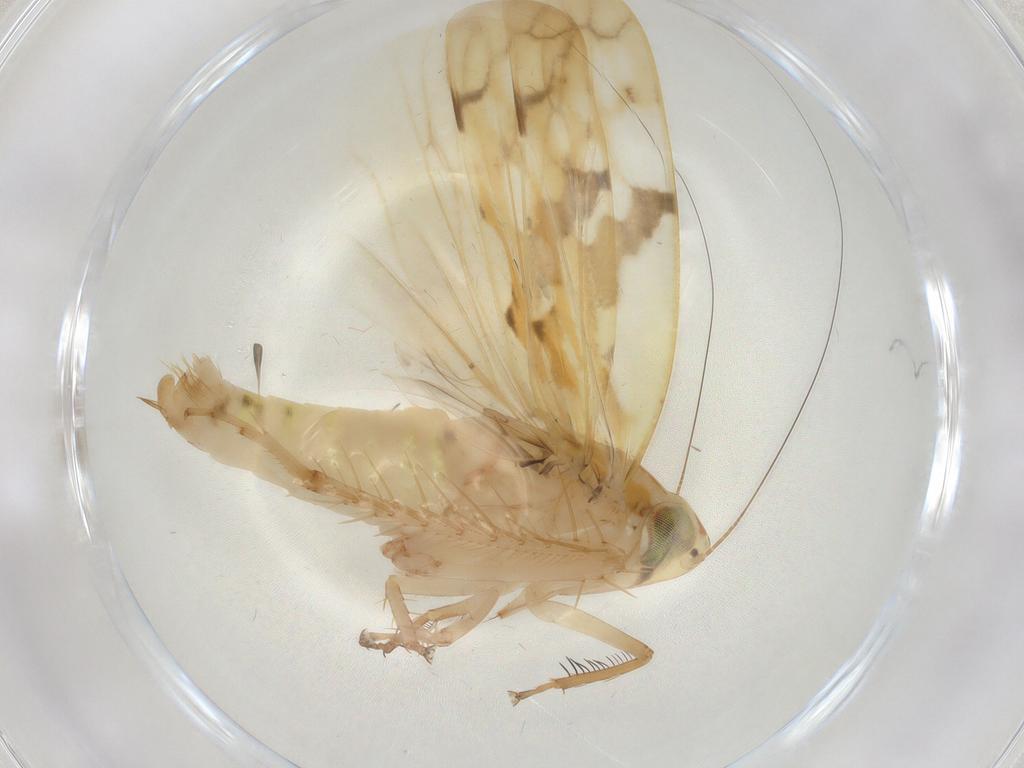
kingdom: Animalia
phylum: Arthropoda
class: Insecta
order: Hemiptera
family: Cicadellidae
